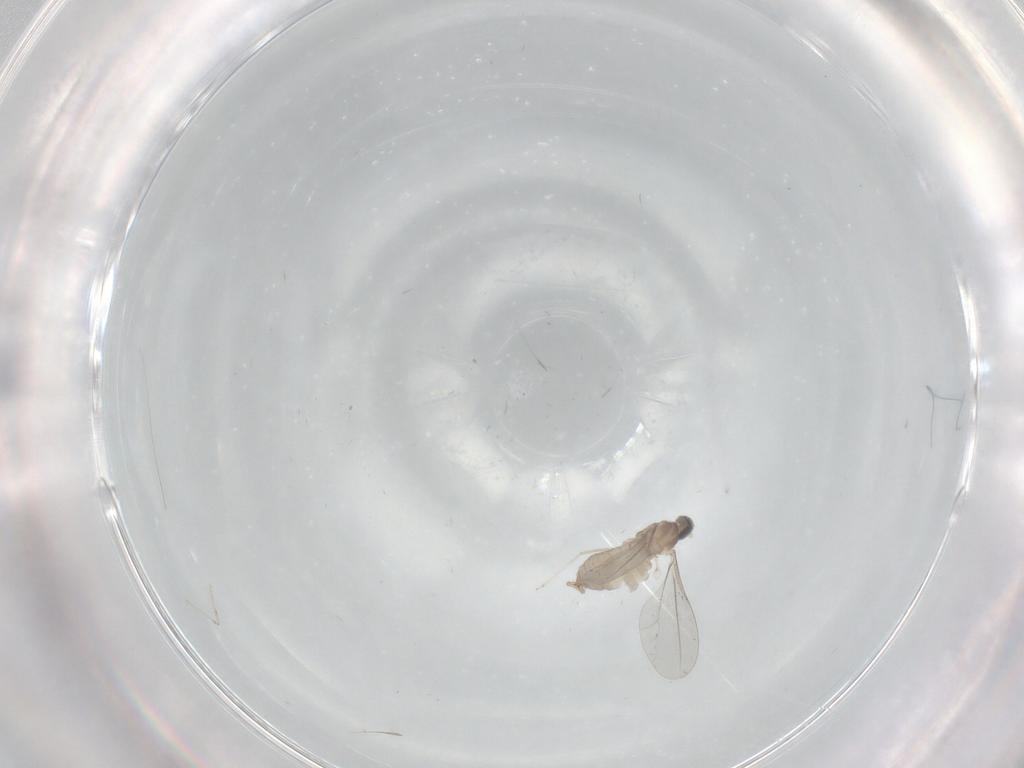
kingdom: Animalia
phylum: Arthropoda
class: Insecta
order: Diptera
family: Cecidomyiidae
